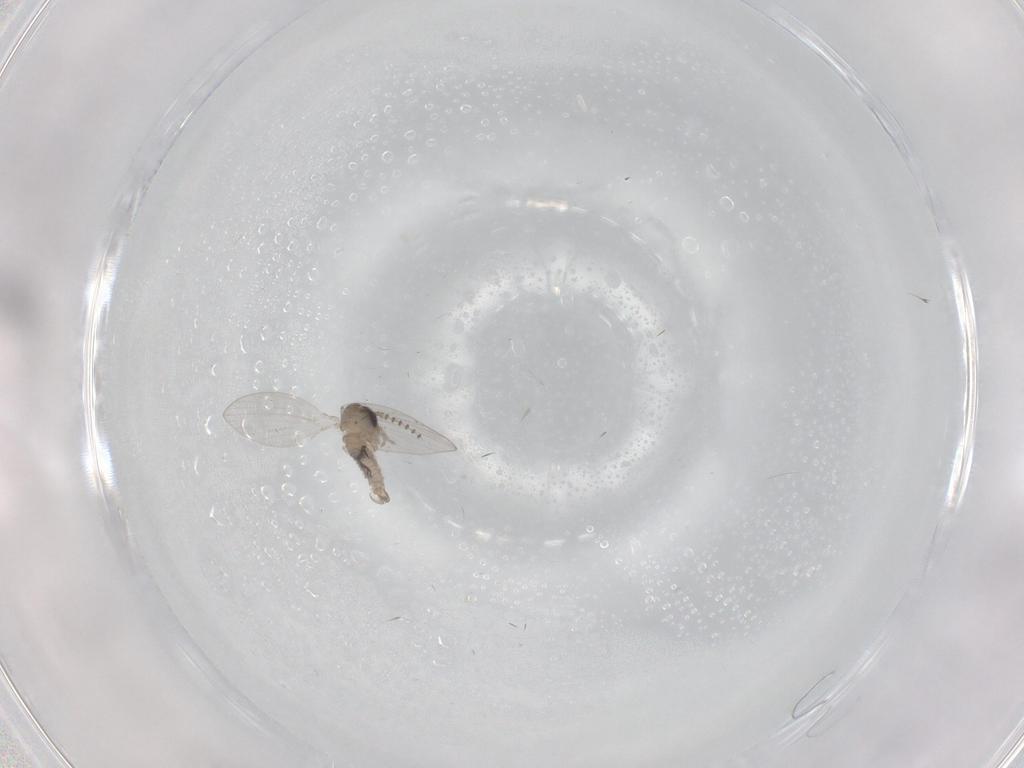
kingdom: Animalia
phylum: Arthropoda
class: Insecta
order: Diptera
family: Psychodidae
